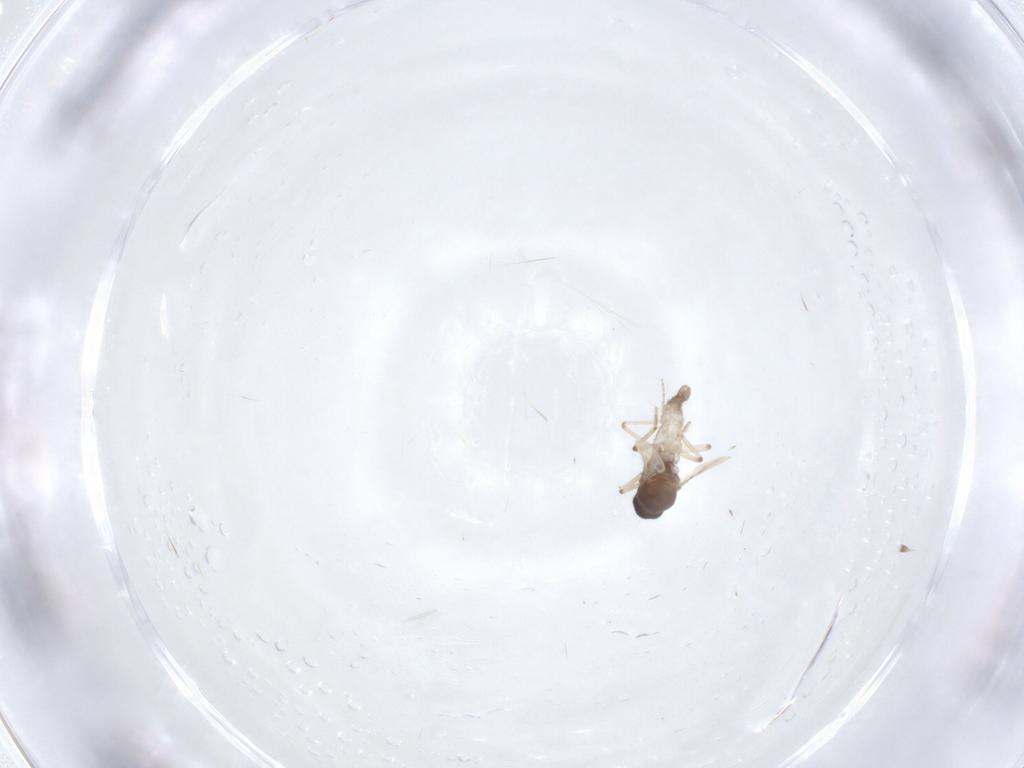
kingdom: Animalia
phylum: Arthropoda
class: Insecta
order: Diptera
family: Ceratopogonidae
